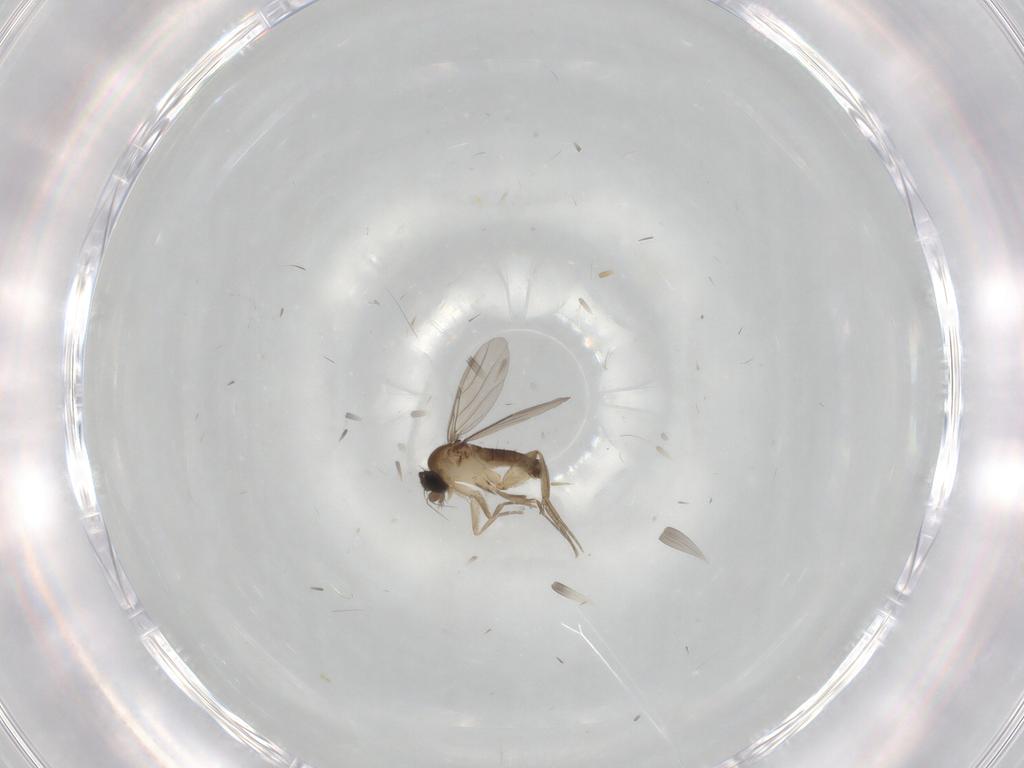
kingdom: Animalia
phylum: Arthropoda
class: Insecta
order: Diptera
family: Phoridae
